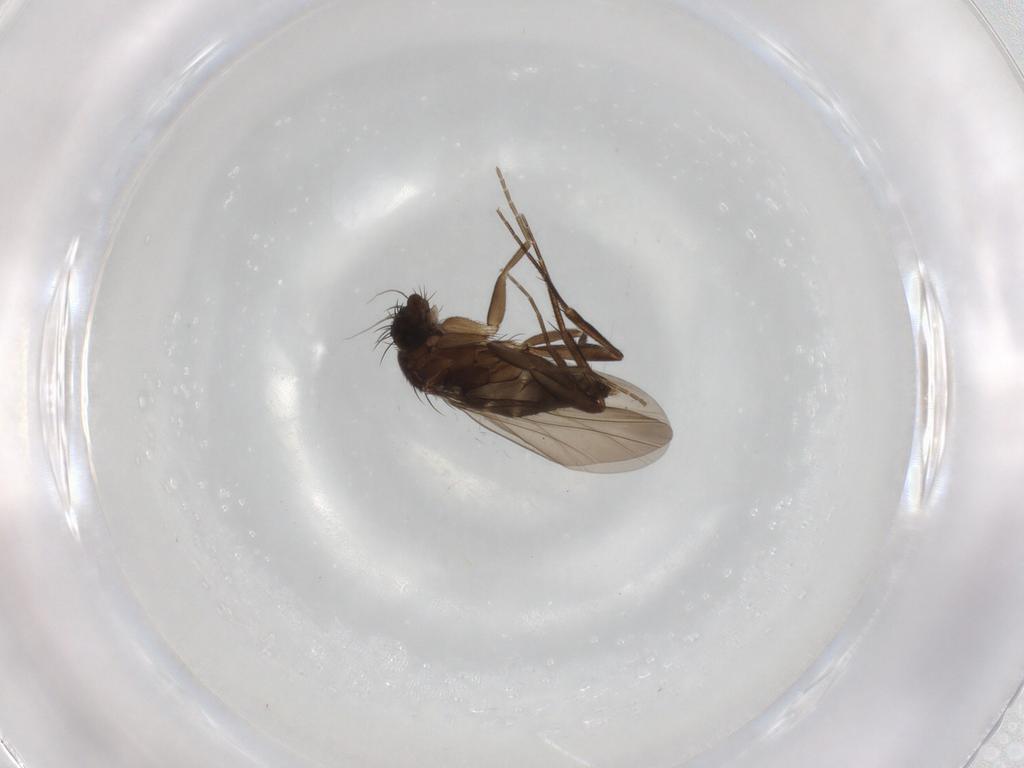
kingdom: Animalia
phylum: Arthropoda
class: Insecta
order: Diptera
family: Phoridae
